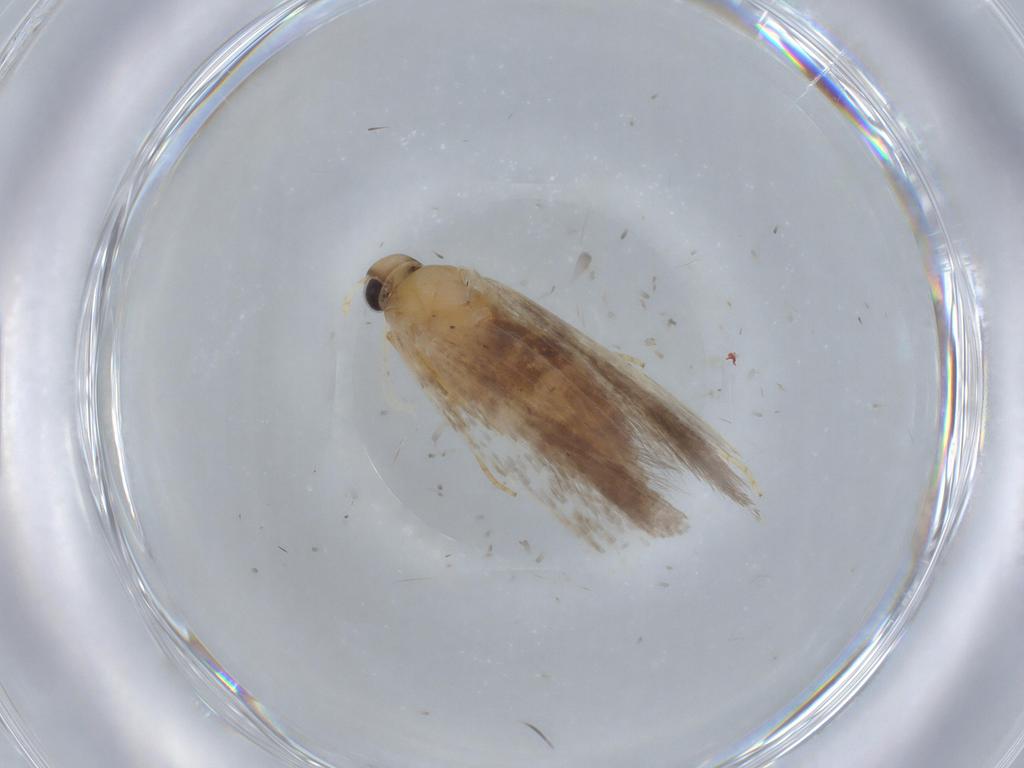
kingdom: Animalia
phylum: Arthropoda
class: Insecta
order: Lepidoptera
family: Gelechiidae
